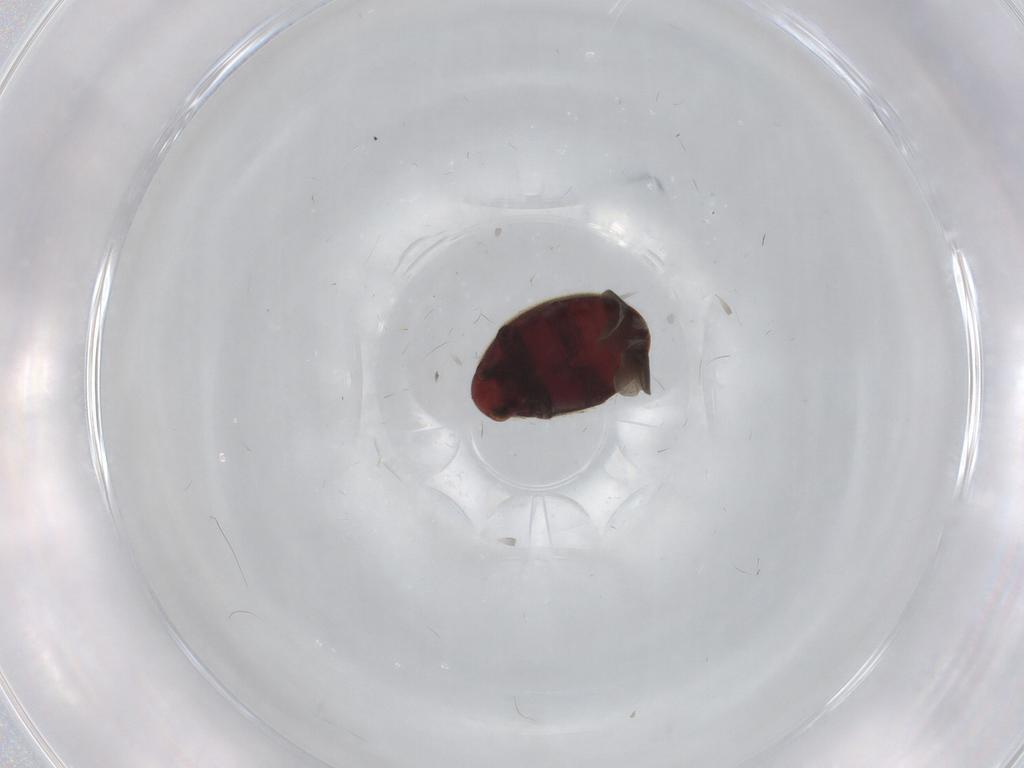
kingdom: Animalia
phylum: Arthropoda
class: Insecta
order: Coleoptera
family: Ptinidae
